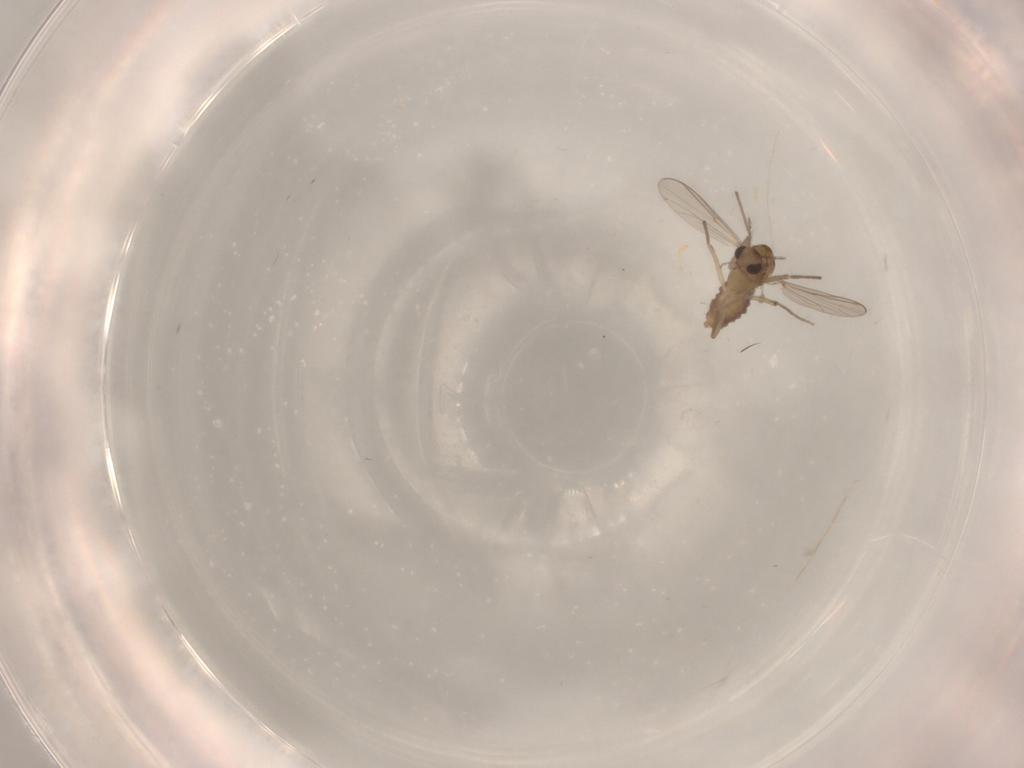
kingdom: Animalia
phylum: Arthropoda
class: Insecta
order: Diptera
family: Chironomidae
